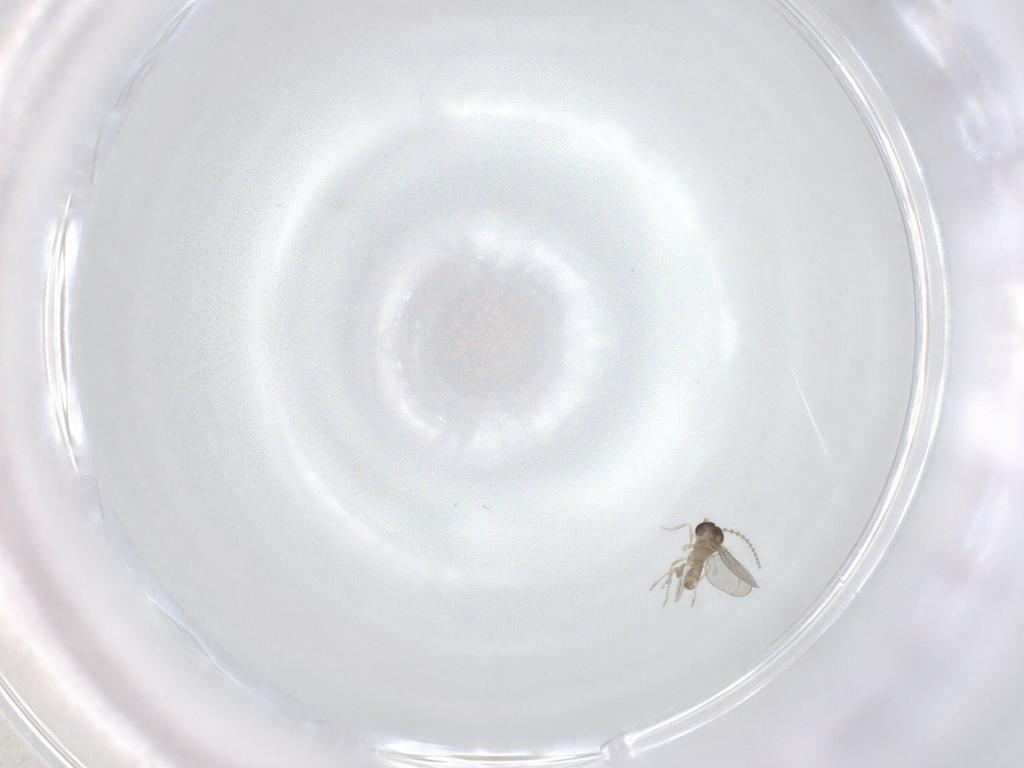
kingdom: Animalia
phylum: Arthropoda
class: Insecta
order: Diptera
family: Cecidomyiidae
